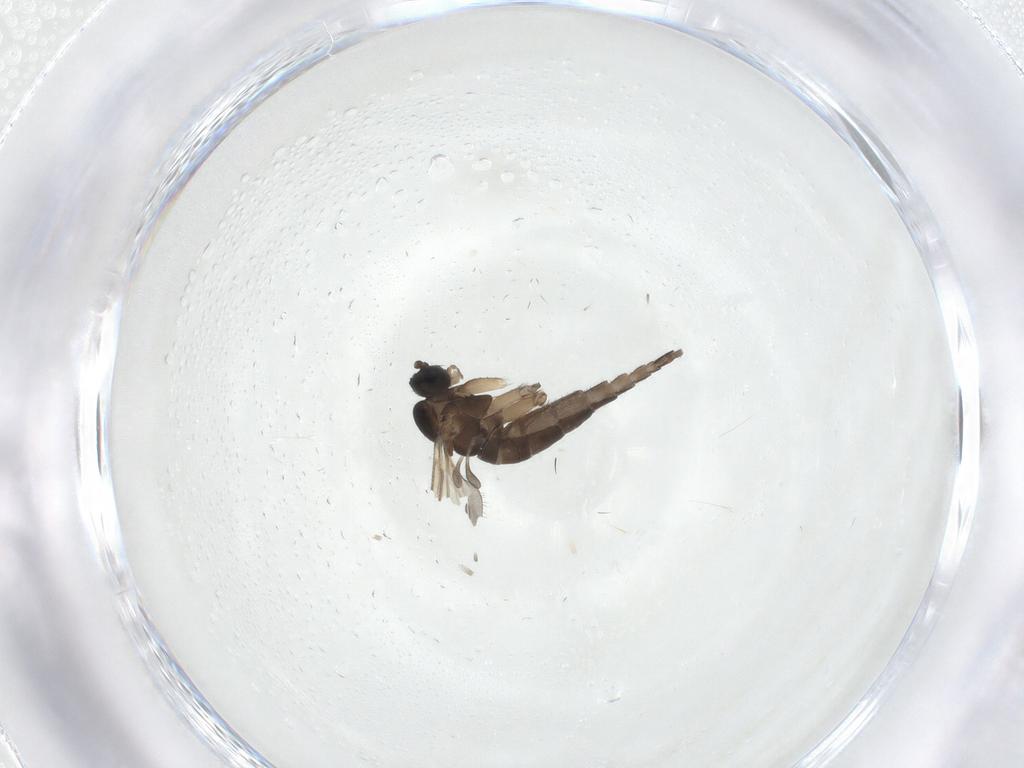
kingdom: Animalia
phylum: Arthropoda
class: Insecta
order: Diptera
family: Sciaridae
